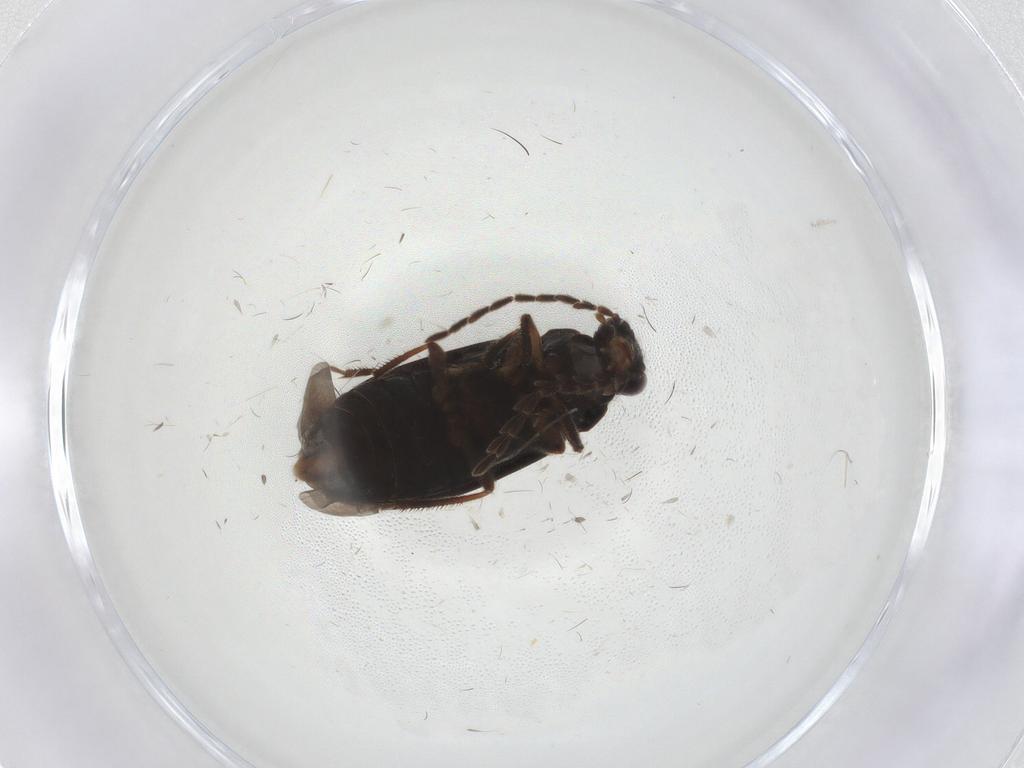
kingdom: Animalia
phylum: Arthropoda
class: Insecta
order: Coleoptera
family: Ptilodactylidae
